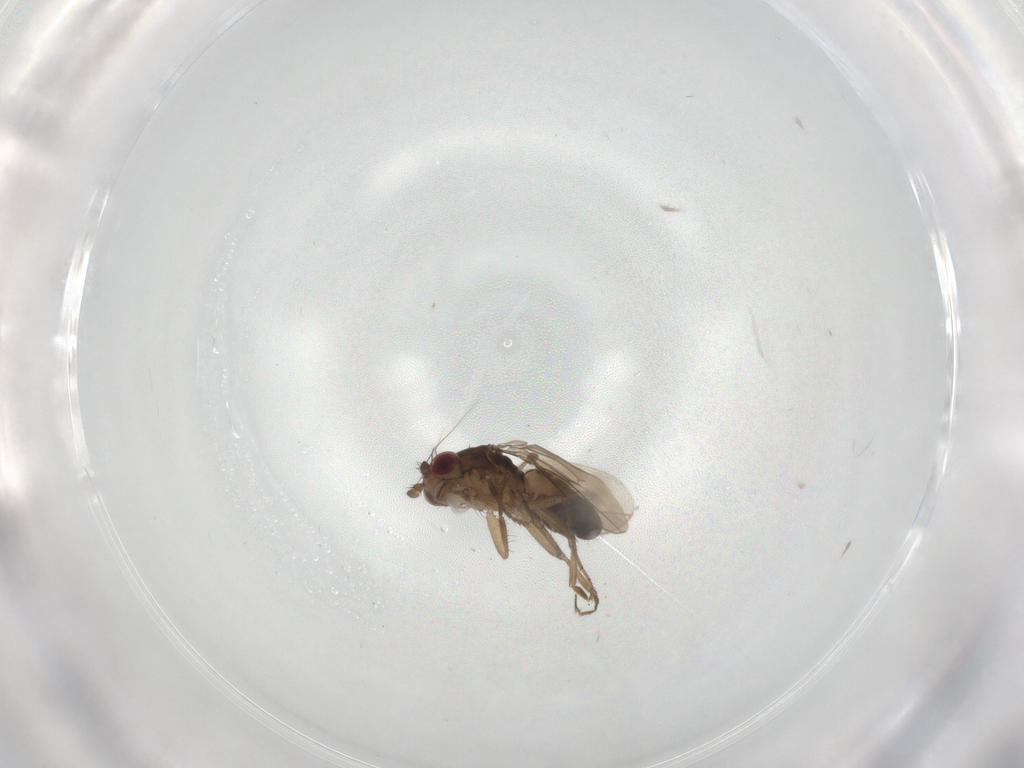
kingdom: Animalia
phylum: Arthropoda
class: Insecta
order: Diptera
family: Sphaeroceridae
